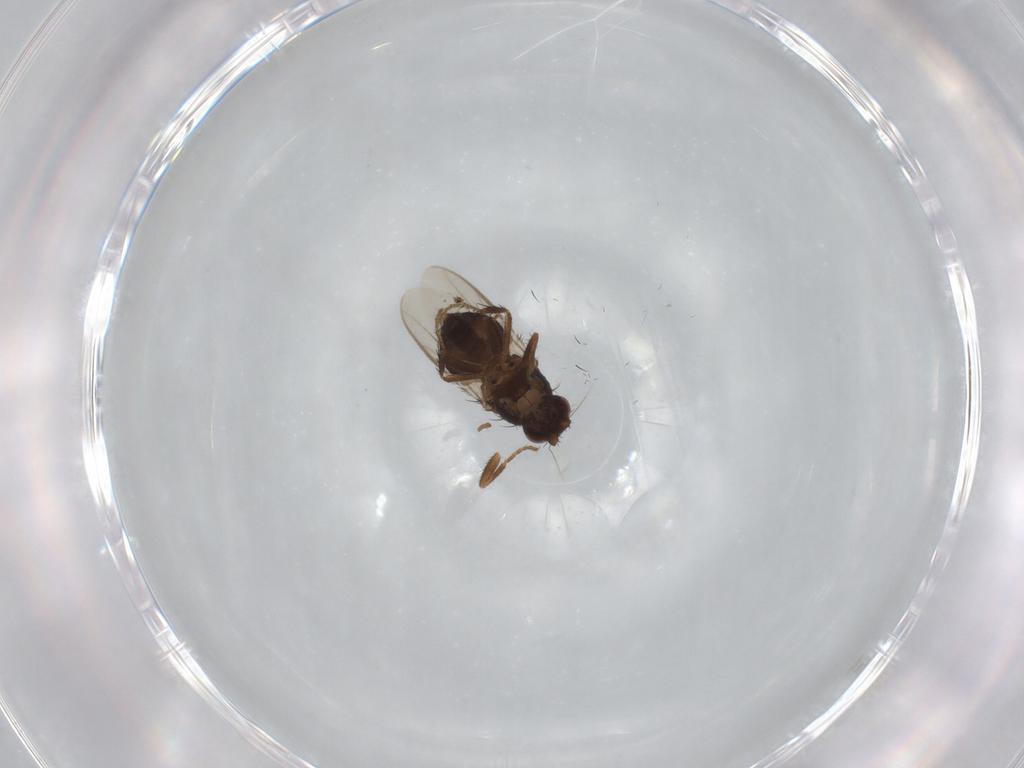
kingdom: Animalia
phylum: Arthropoda
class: Insecta
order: Diptera
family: Sphaeroceridae
